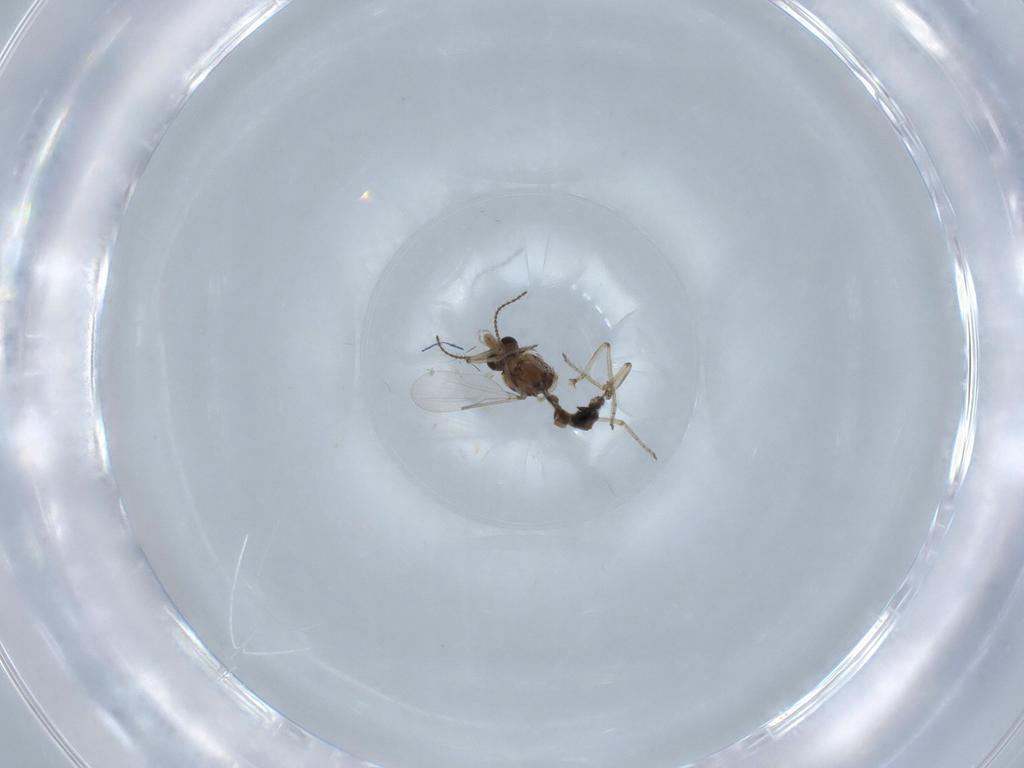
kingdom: Animalia
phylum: Arthropoda
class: Insecta
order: Diptera
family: Ceratopogonidae
